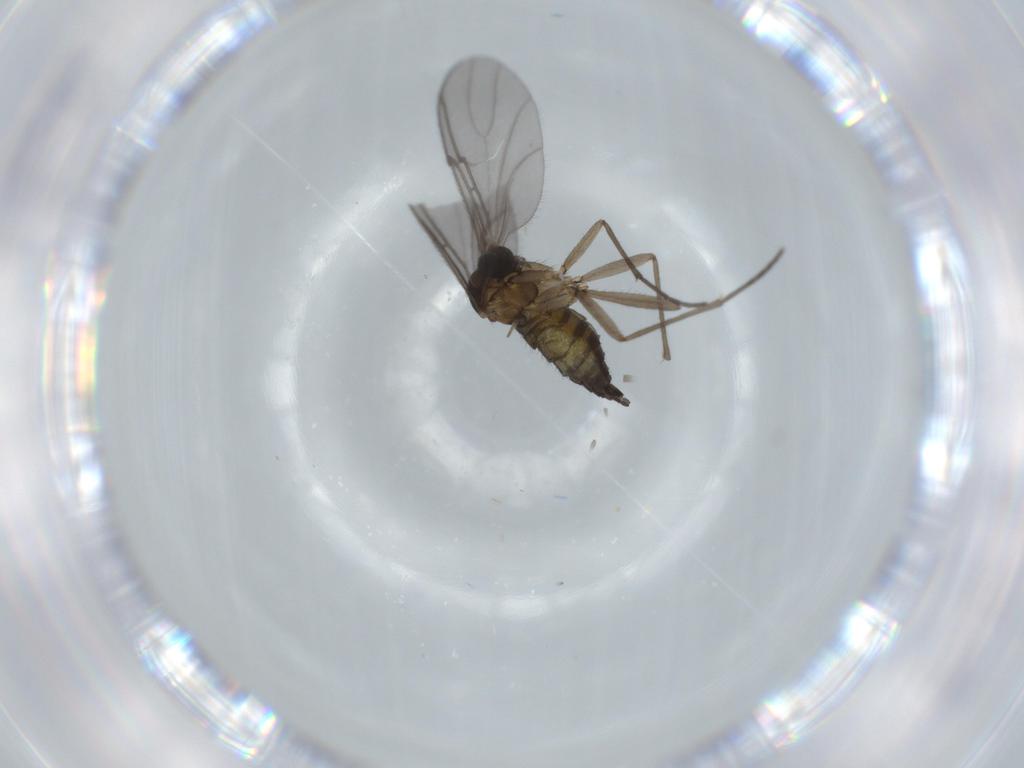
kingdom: Animalia
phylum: Arthropoda
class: Insecta
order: Diptera
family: Sciaridae
